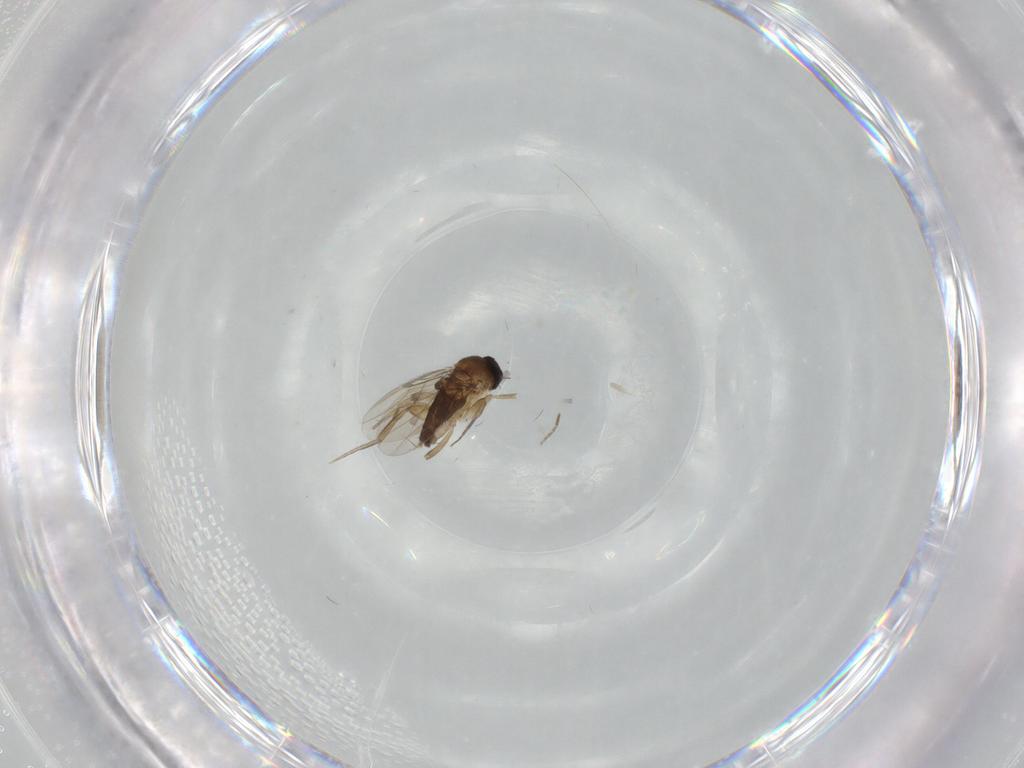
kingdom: Animalia
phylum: Arthropoda
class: Insecta
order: Diptera
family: Phoridae
